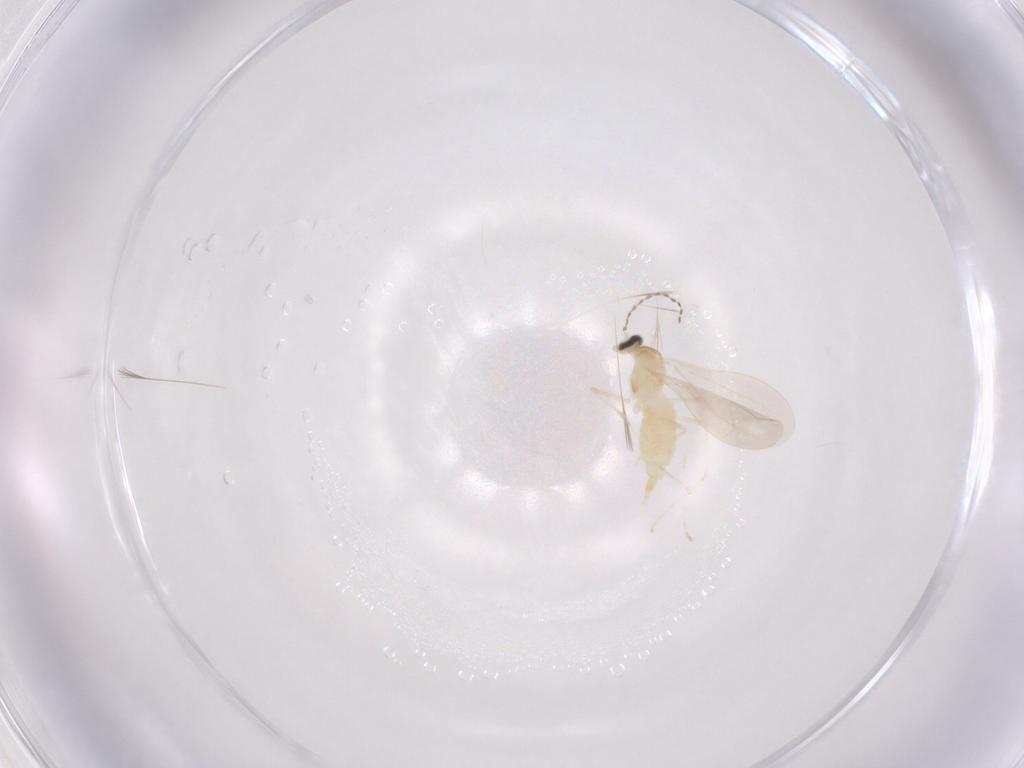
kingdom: Animalia
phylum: Arthropoda
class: Insecta
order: Diptera
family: Cecidomyiidae
